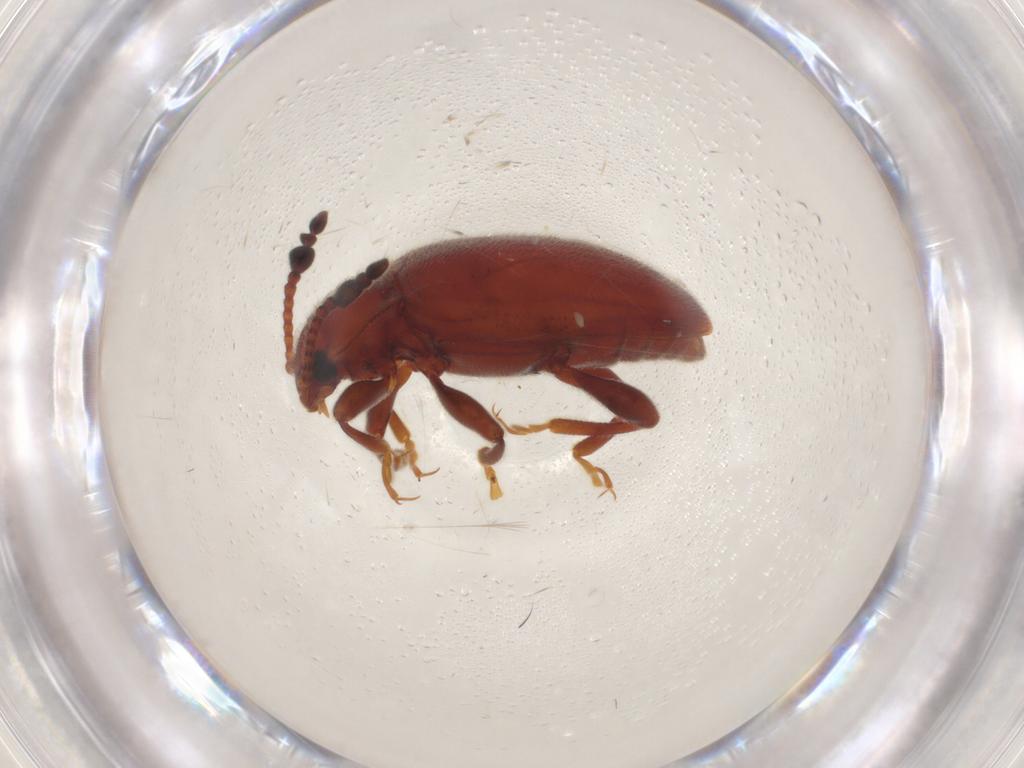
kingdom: Animalia
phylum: Arthropoda
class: Insecta
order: Coleoptera
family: Endomychidae
